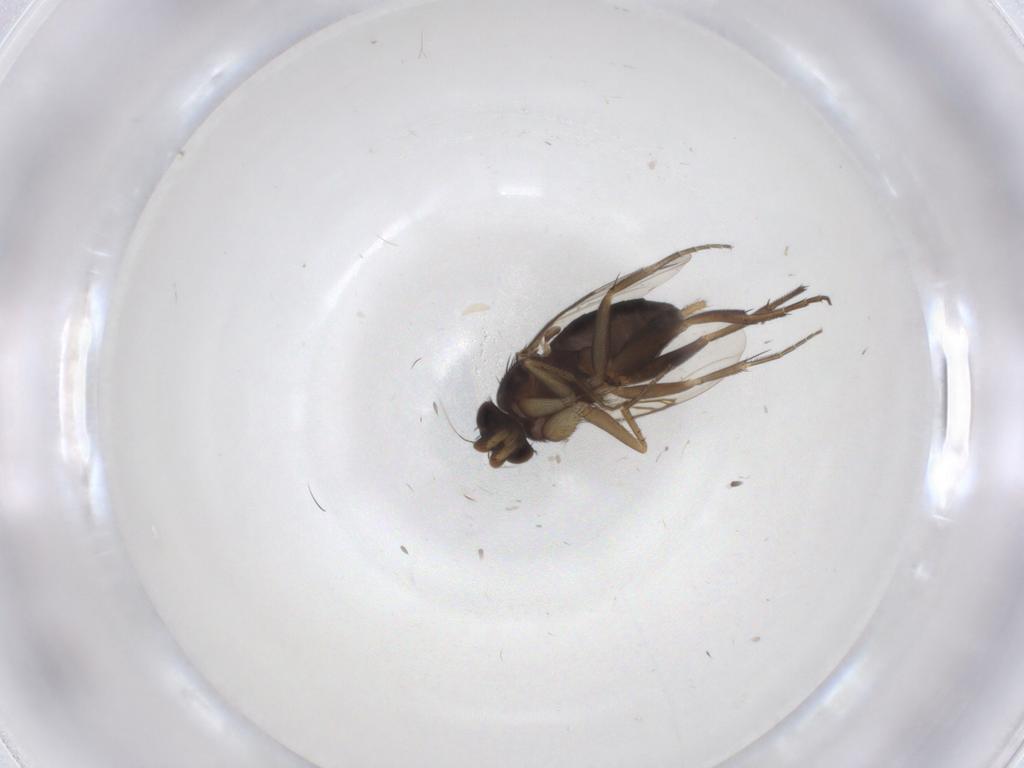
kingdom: Animalia
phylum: Arthropoda
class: Insecta
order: Diptera
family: Phoridae
